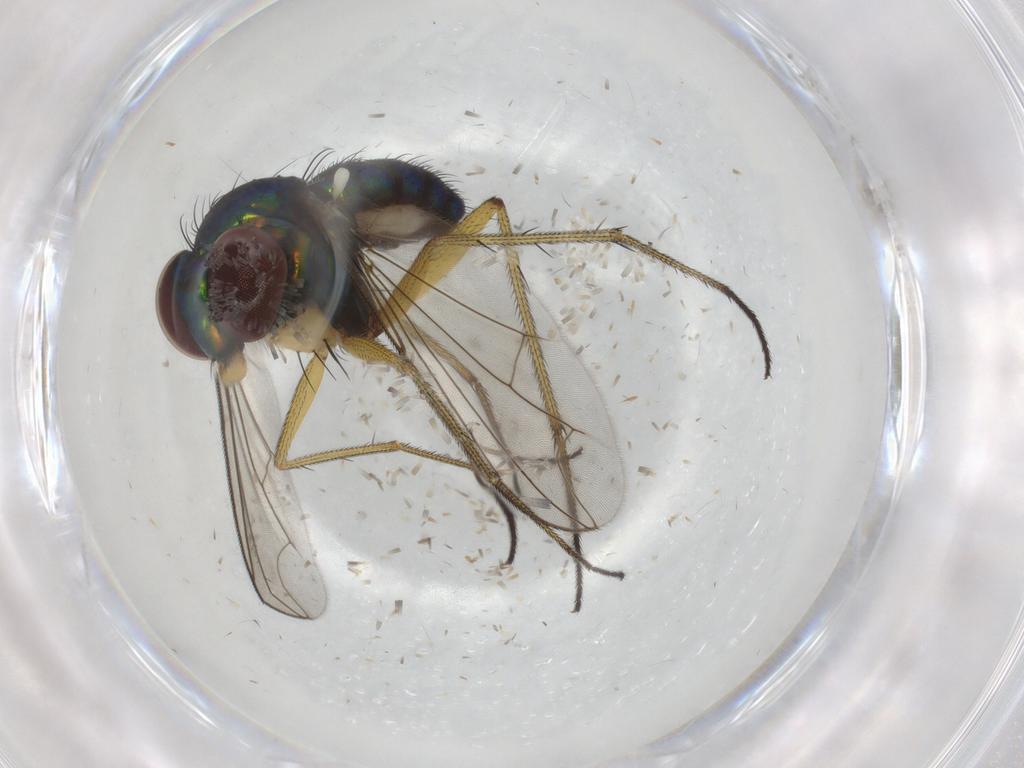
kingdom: Animalia
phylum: Arthropoda
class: Insecta
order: Diptera
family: Dolichopodidae
